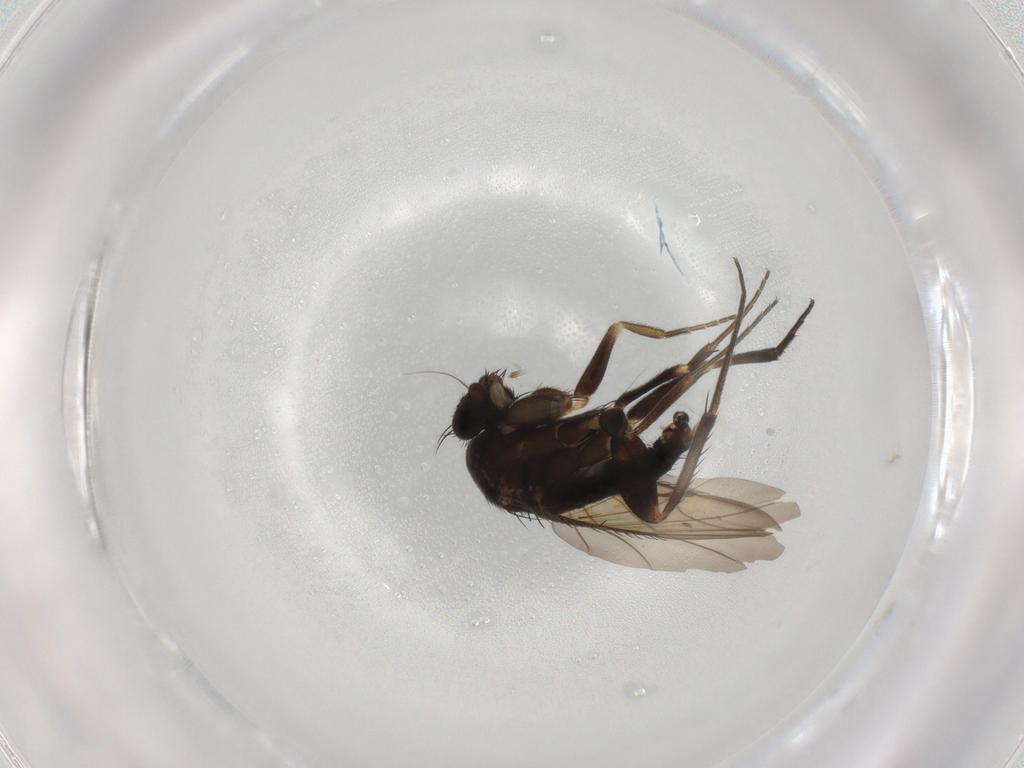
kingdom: Animalia
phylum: Arthropoda
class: Insecta
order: Diptera
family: Phoridae
